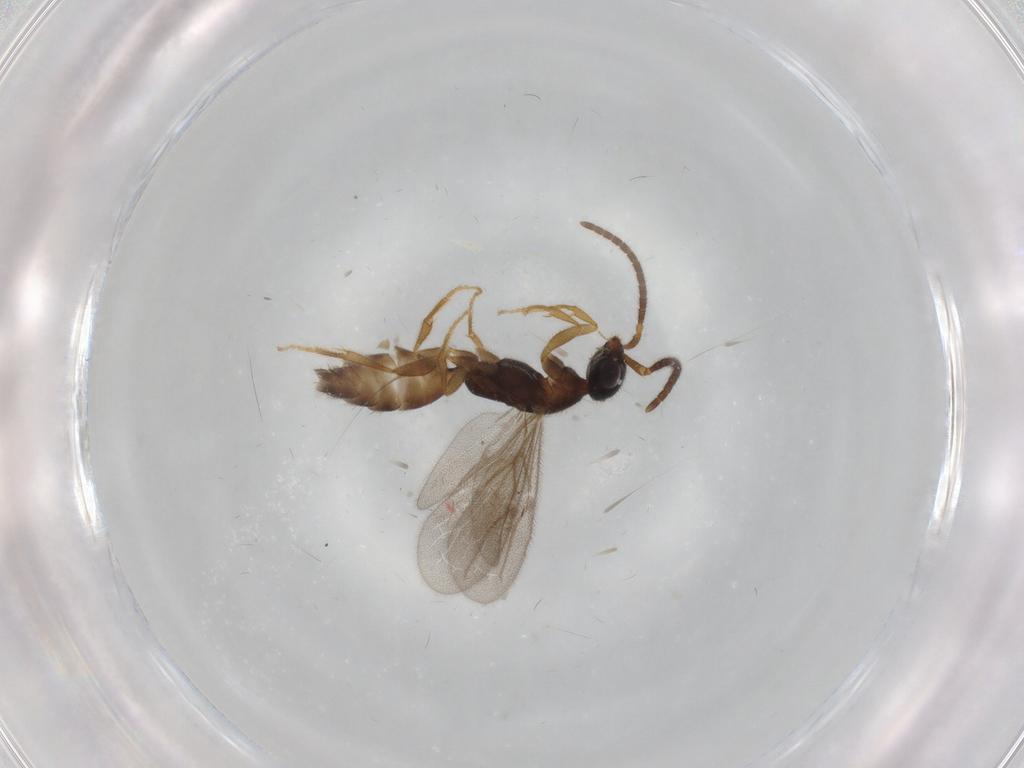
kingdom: Animalia
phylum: Arthropoda
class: Insecta
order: Hymenoptera
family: Bethylidae
